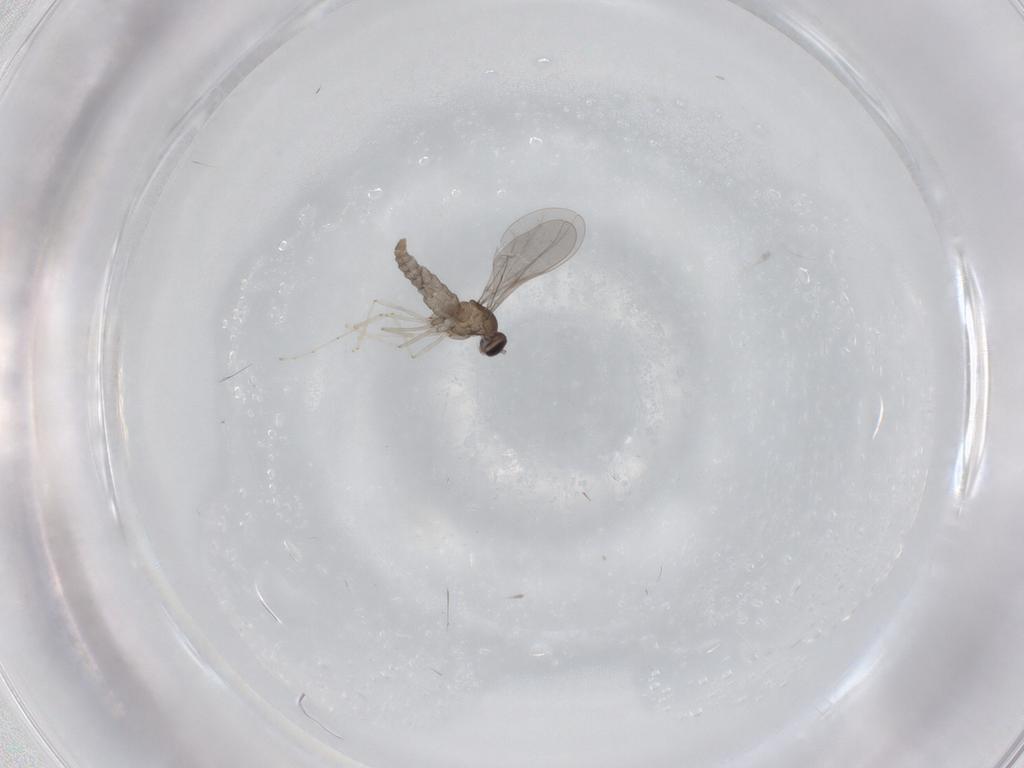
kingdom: Animalia
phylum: Arthropoda
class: Insecta
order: Diptera
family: Cecidomyiidae
